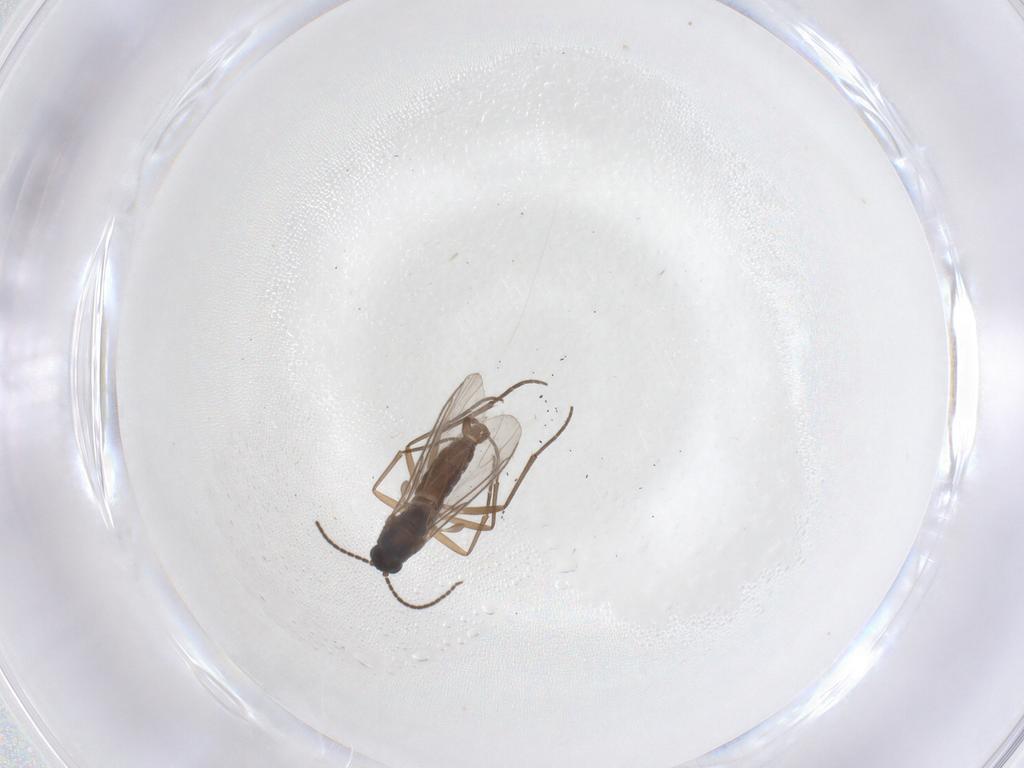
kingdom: Animalia
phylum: Arthropoda
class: Insecta
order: Diptera
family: Sciaridae
